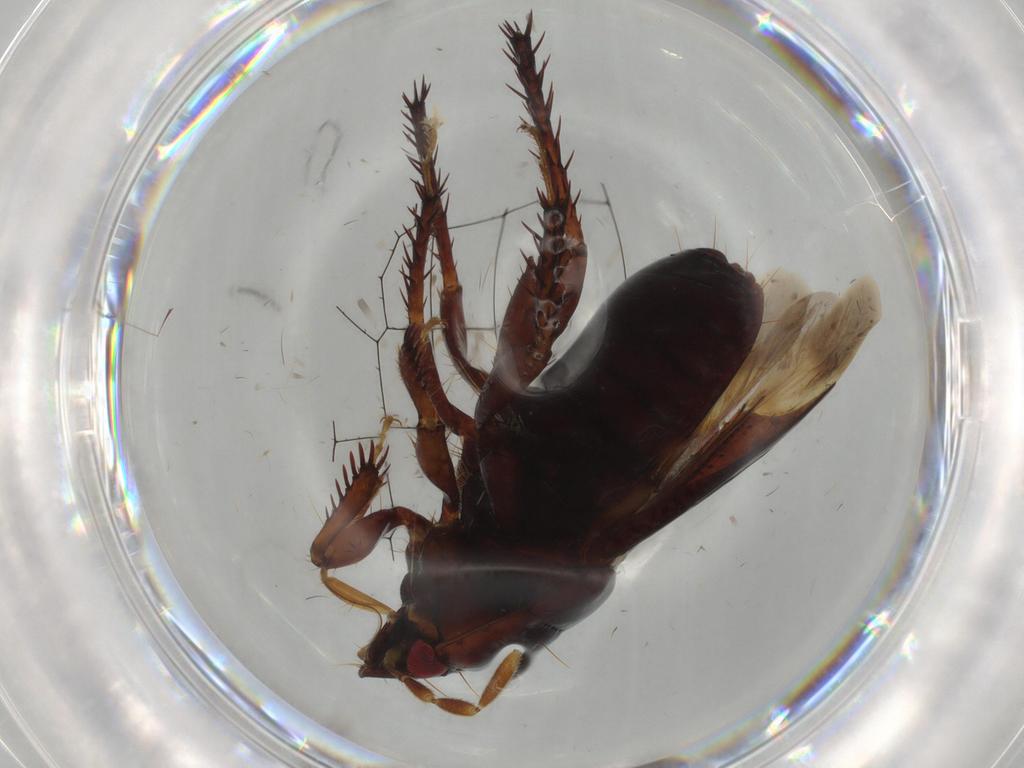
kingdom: Animalia
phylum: Arthropoda
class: Insecta
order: Hemiptera
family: Cydnidae
